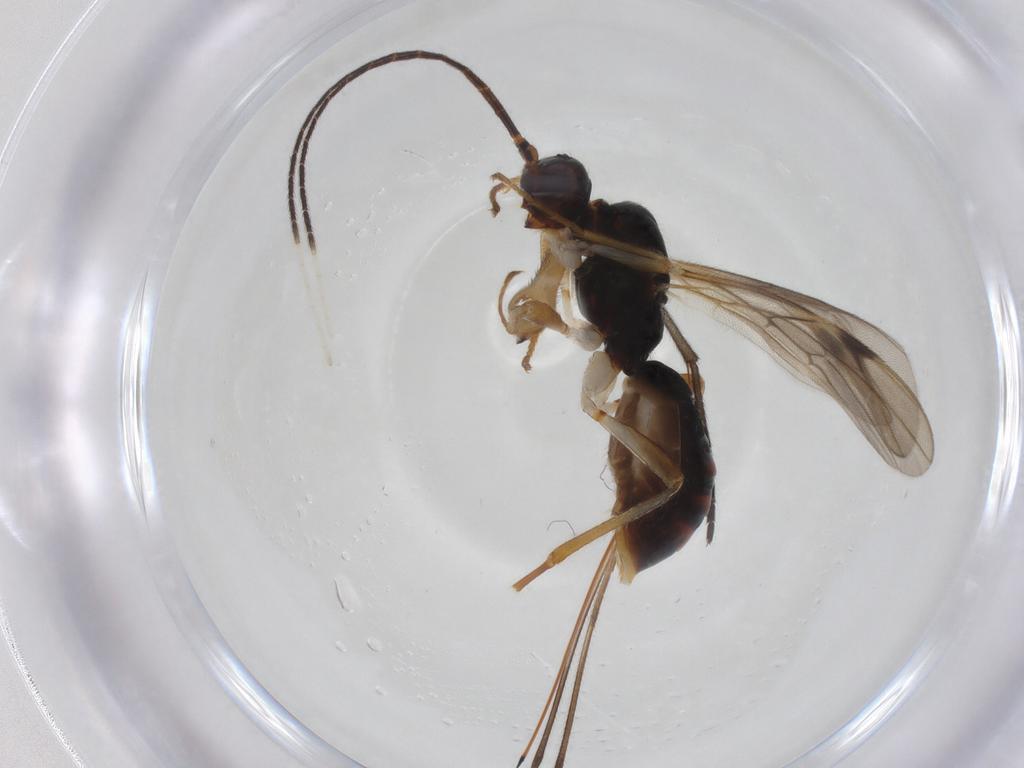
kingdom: Animalia
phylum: Arthropoda
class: Insecta
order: Hymenoptera
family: Braconidae
